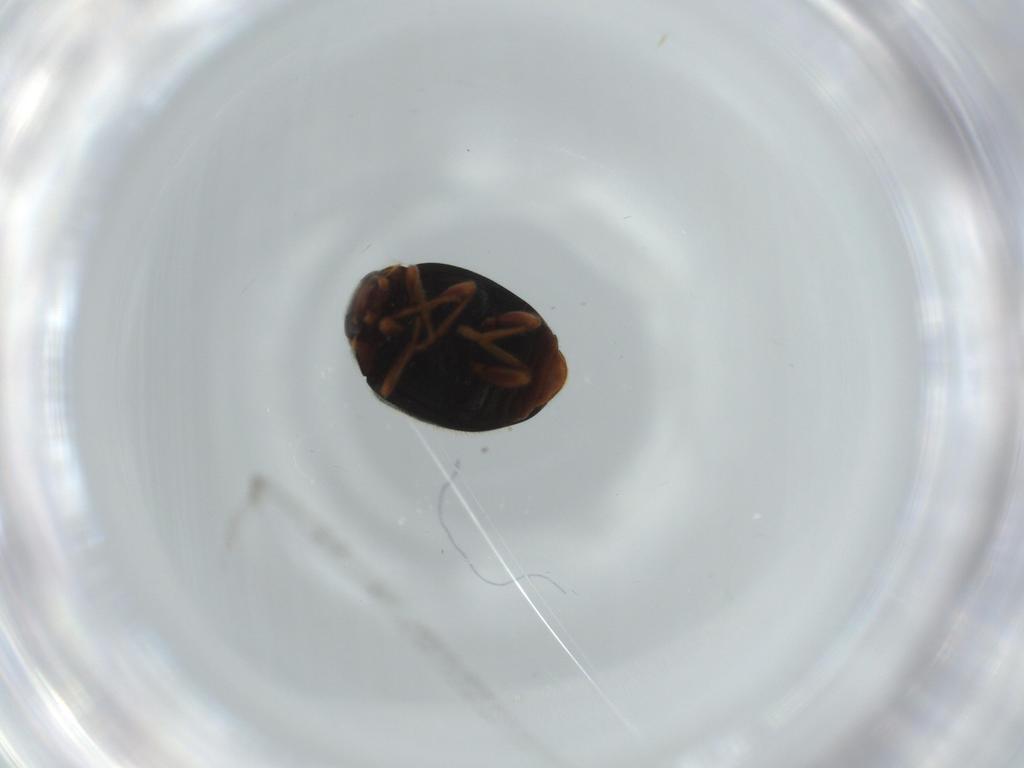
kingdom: Animalia
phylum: Arthropoda
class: Insecta
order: Coleoptera
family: Coccinellidae
